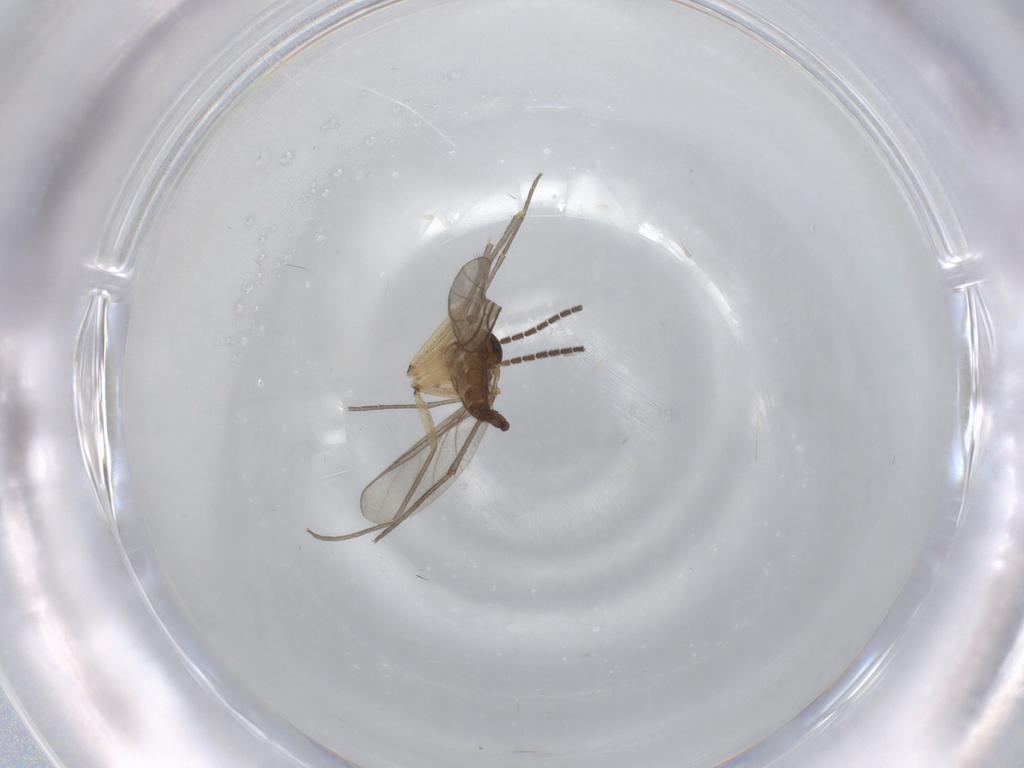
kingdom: Animalia
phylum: Arthropoda
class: Insecta
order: Diptera
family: Sciaridae
